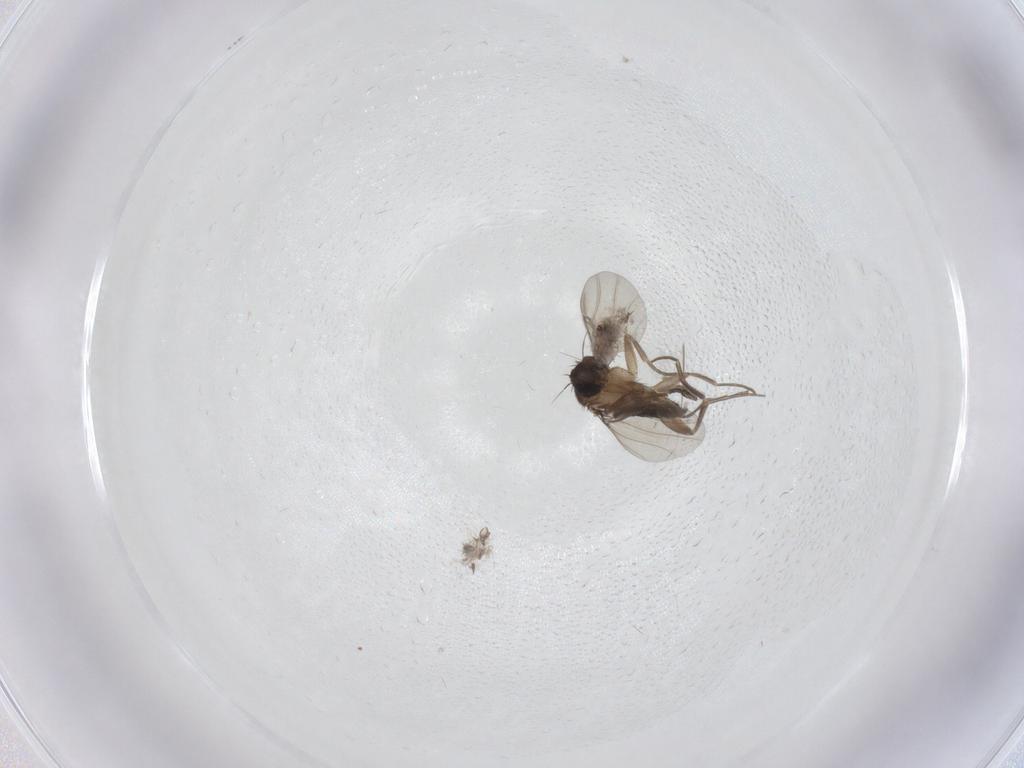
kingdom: Animalia
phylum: Arthropoda
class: Insecta
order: Diptera
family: Psychodidae
